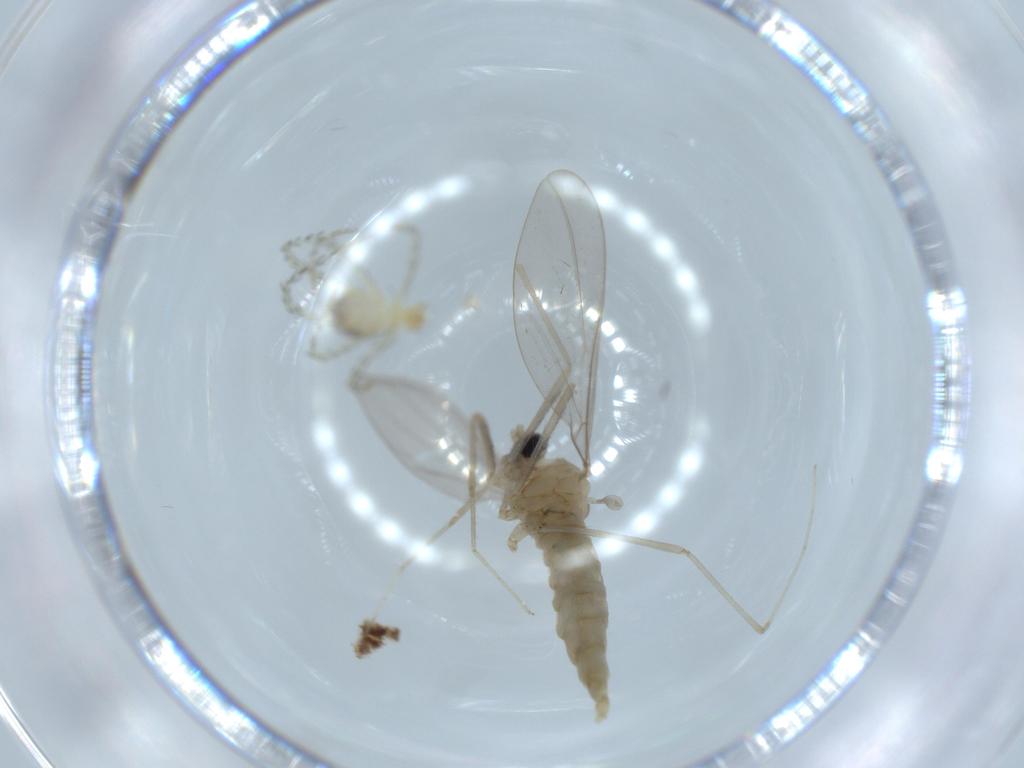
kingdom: Animalia
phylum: Arthropoda
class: Insecta
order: Diptera
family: Cecidomyiidae
